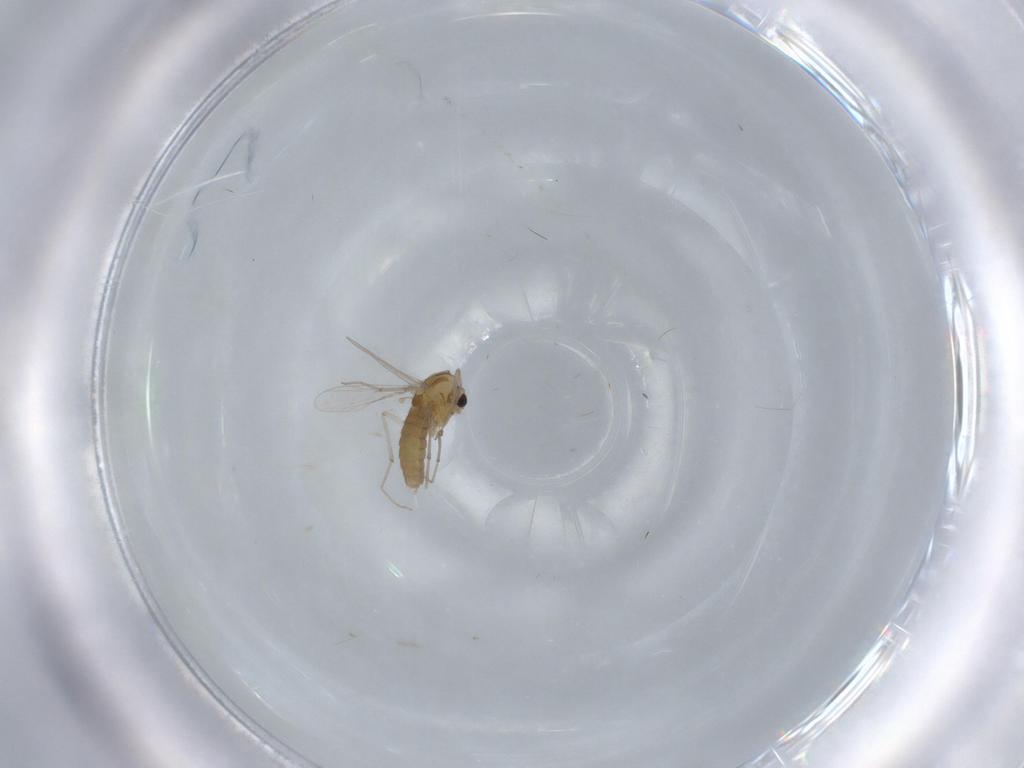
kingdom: Animalia
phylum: Arthropoda
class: Insecta
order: Diptera
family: Chironomidae
